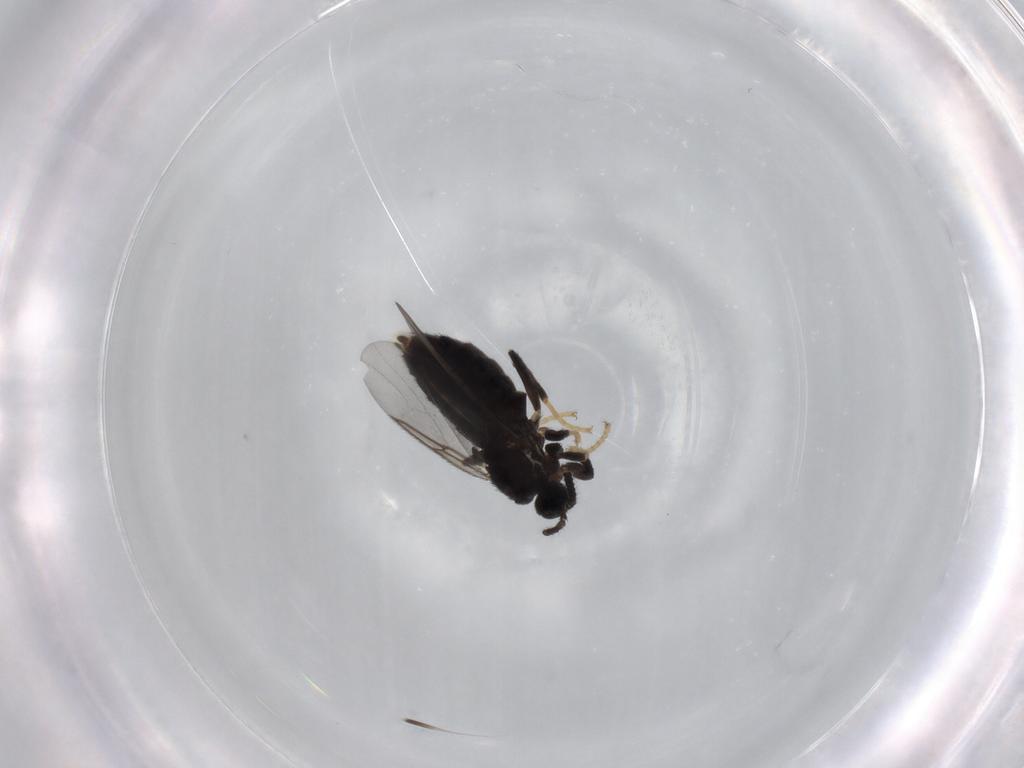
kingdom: Animalia
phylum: Arthropoda
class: Insecta
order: Diptera
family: Scatopsidae
